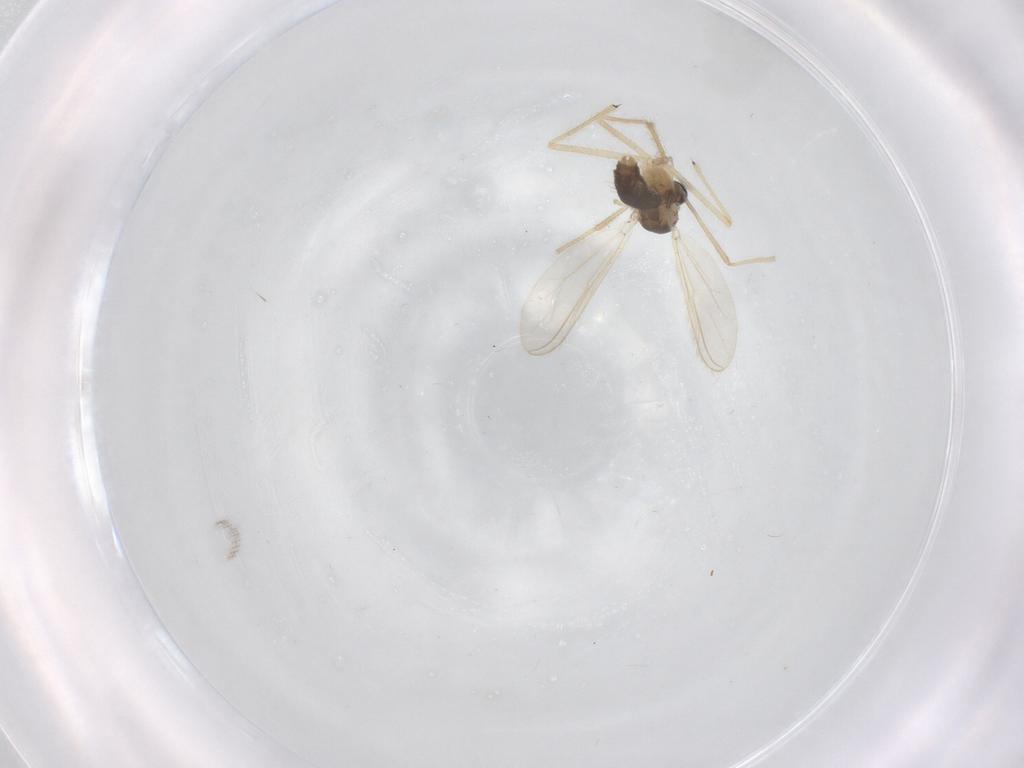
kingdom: Animalia
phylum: Arthropoda
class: Insecta
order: Diptera
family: Chironomidae
